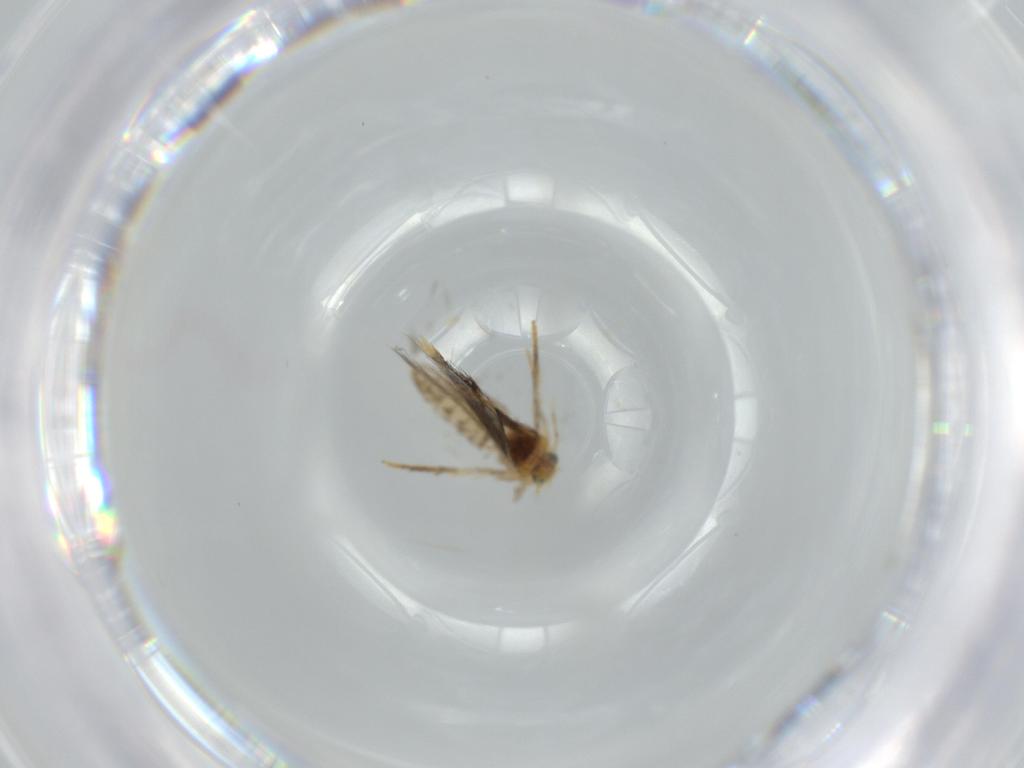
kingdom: Animalia
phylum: Arthropoda
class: Insecta
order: Lepidoptera
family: Copromorphidae
